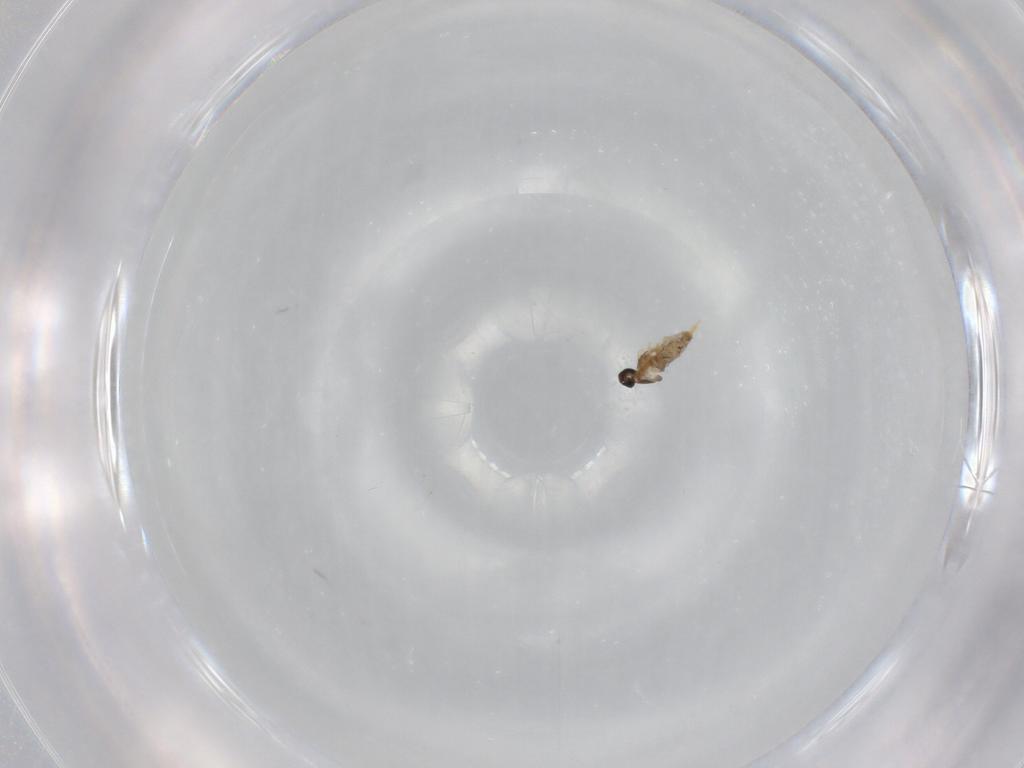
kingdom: Animalia
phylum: Arthropoda
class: Insecta
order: Diptera
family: Cecidomyiidae
